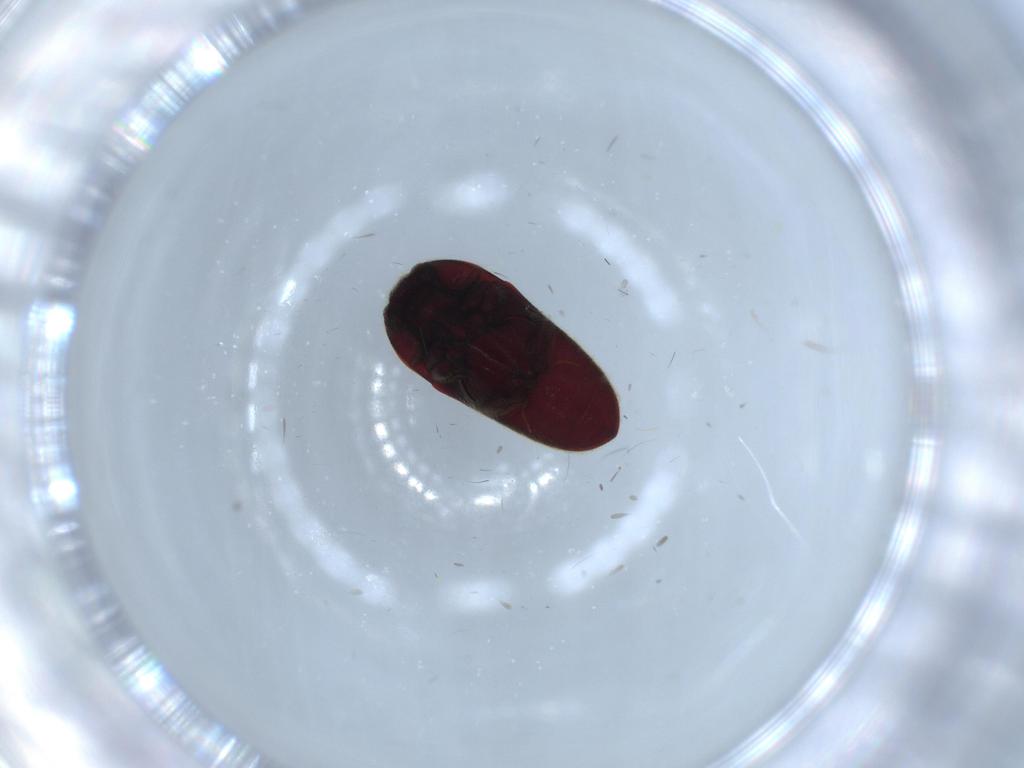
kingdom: Animalia
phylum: Arthropoda
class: Insecta
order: Coleoptera
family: Throscidae
